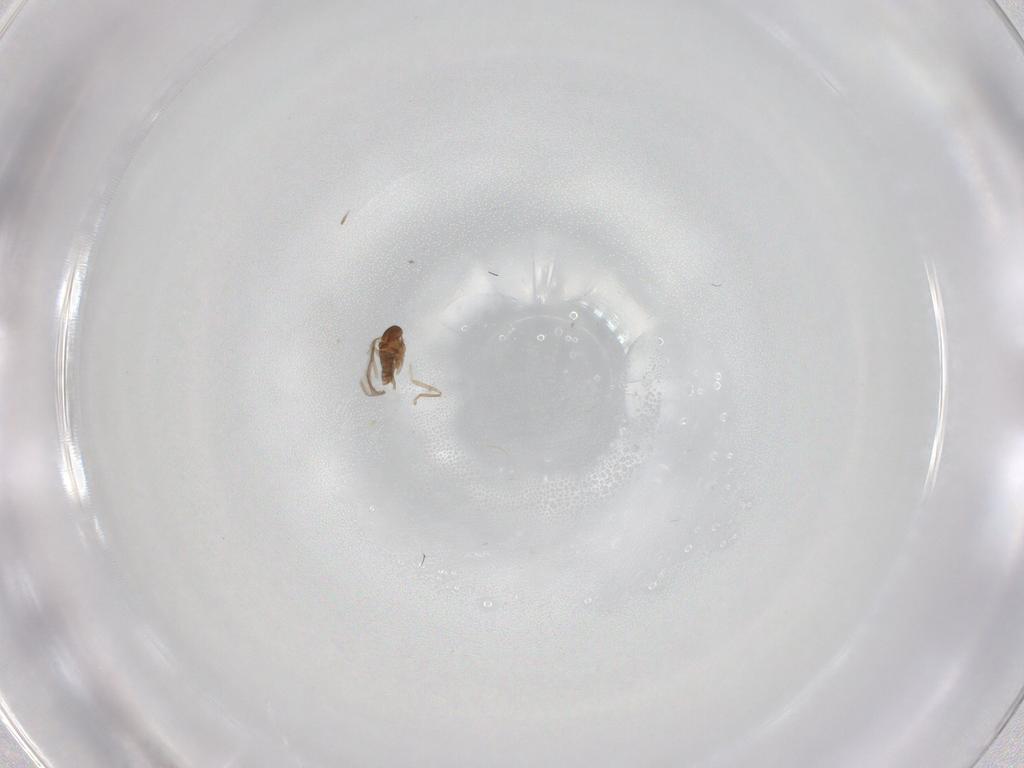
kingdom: Animalia
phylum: Arthropoda
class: Insecta
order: Diptera
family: Cecidomyiidae
